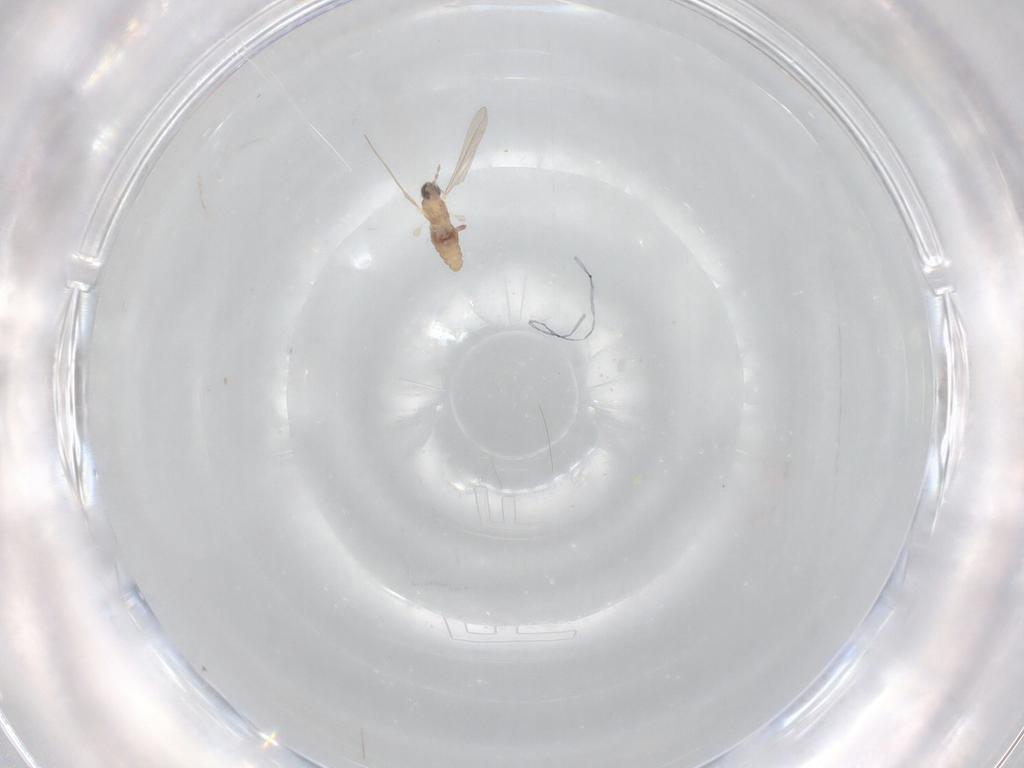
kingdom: Animalia
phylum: Arthropoda
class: Insecta
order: Diptera
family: Cecidomyiidae
